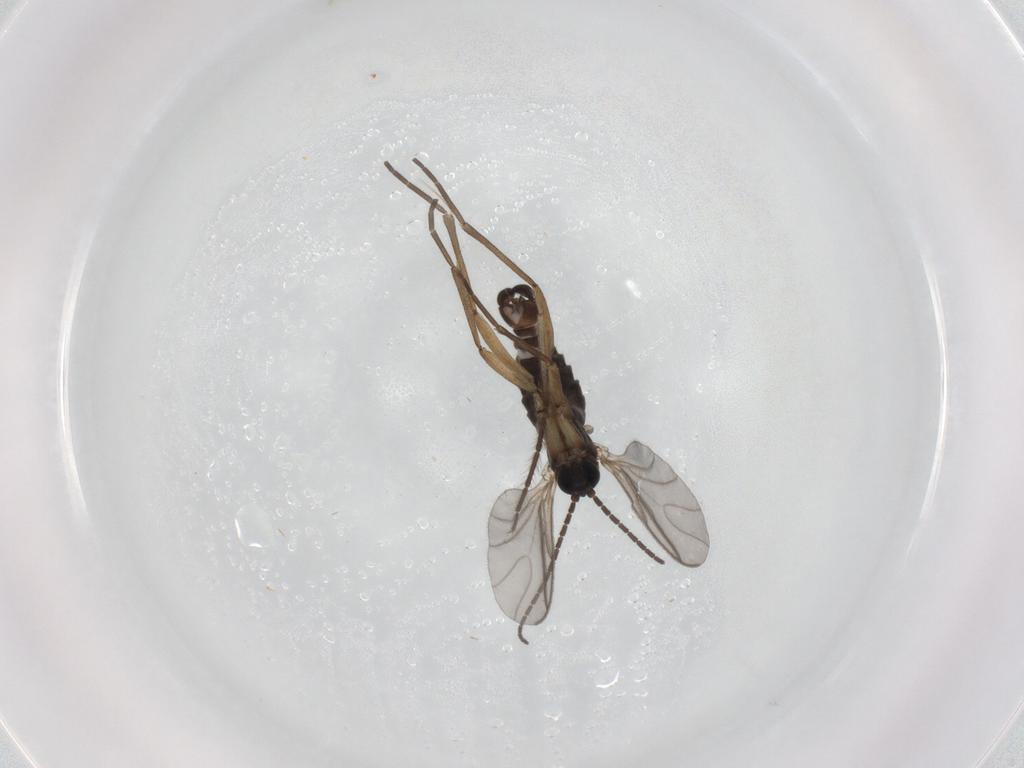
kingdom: Animalia
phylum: Arthropoda
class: Insecta
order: Diptera
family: Sciaridae
